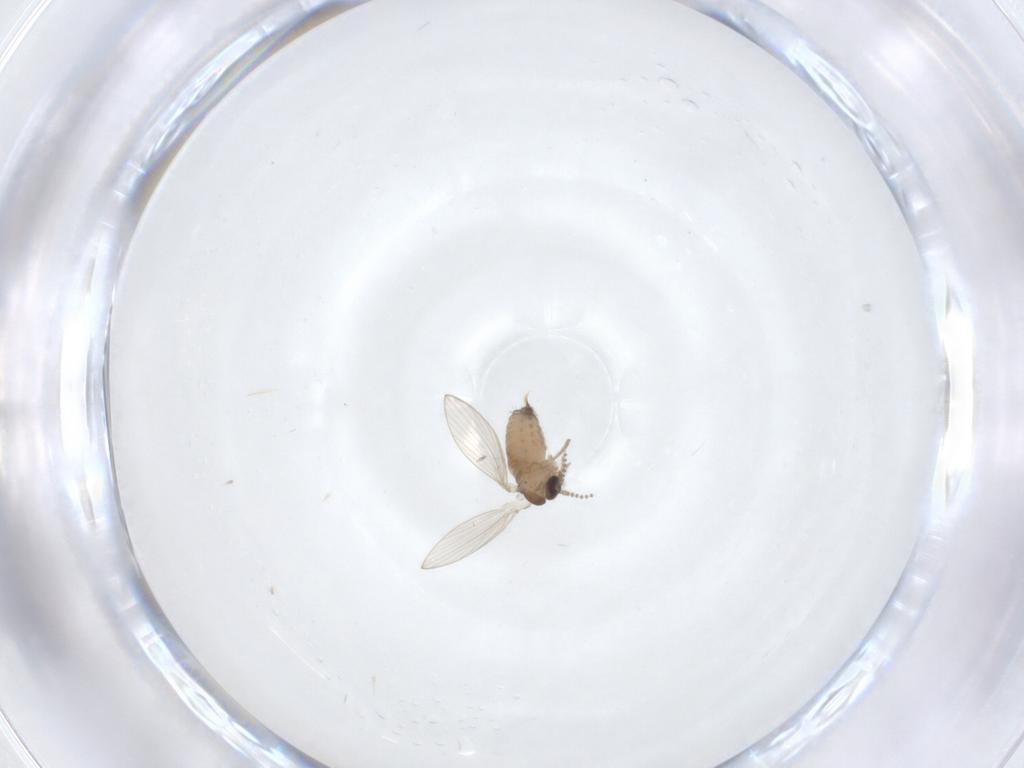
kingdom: Animalia
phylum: Arthropoda
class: Insecta
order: Diptera
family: Psychodidae
